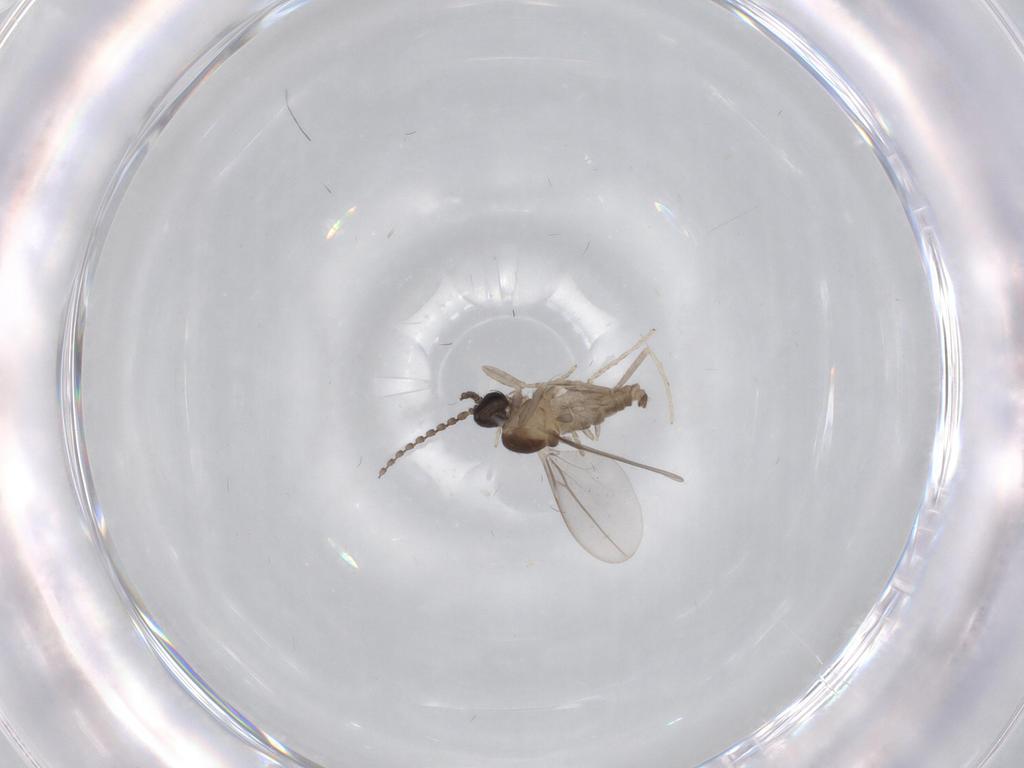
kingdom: Animalia
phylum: Arthropoda
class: Insecta
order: Diptera
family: Cecidomyiidae
